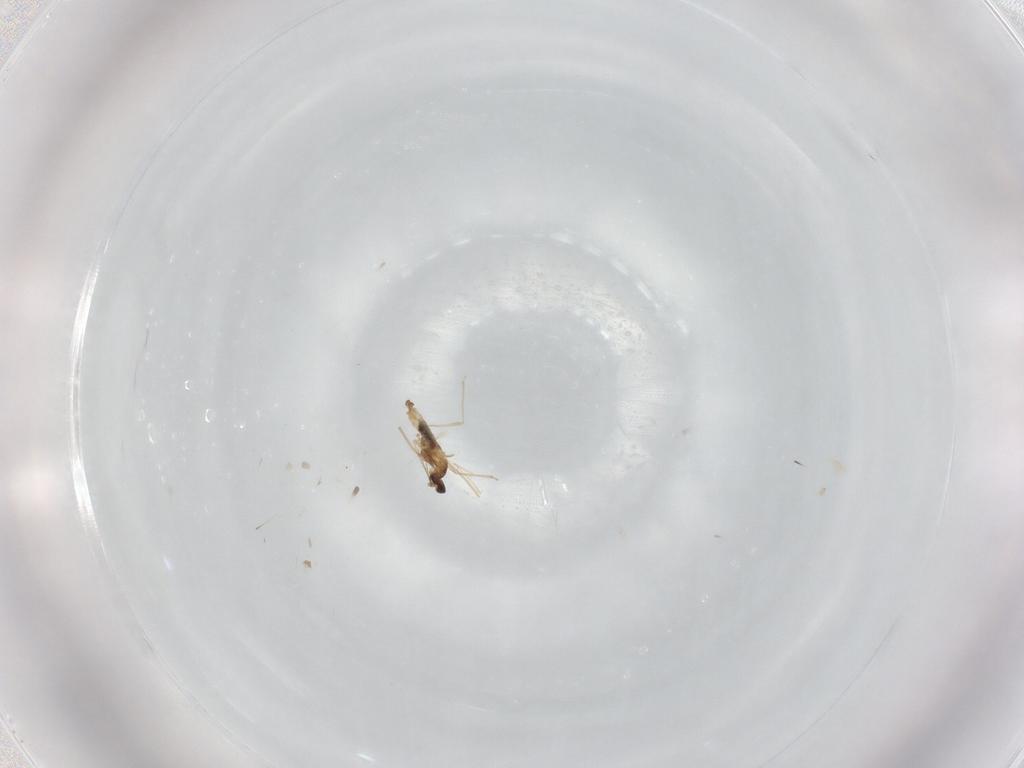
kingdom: Animalia
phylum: Arthropoda
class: Insecta
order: Diptera
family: Cecidomyiidae
